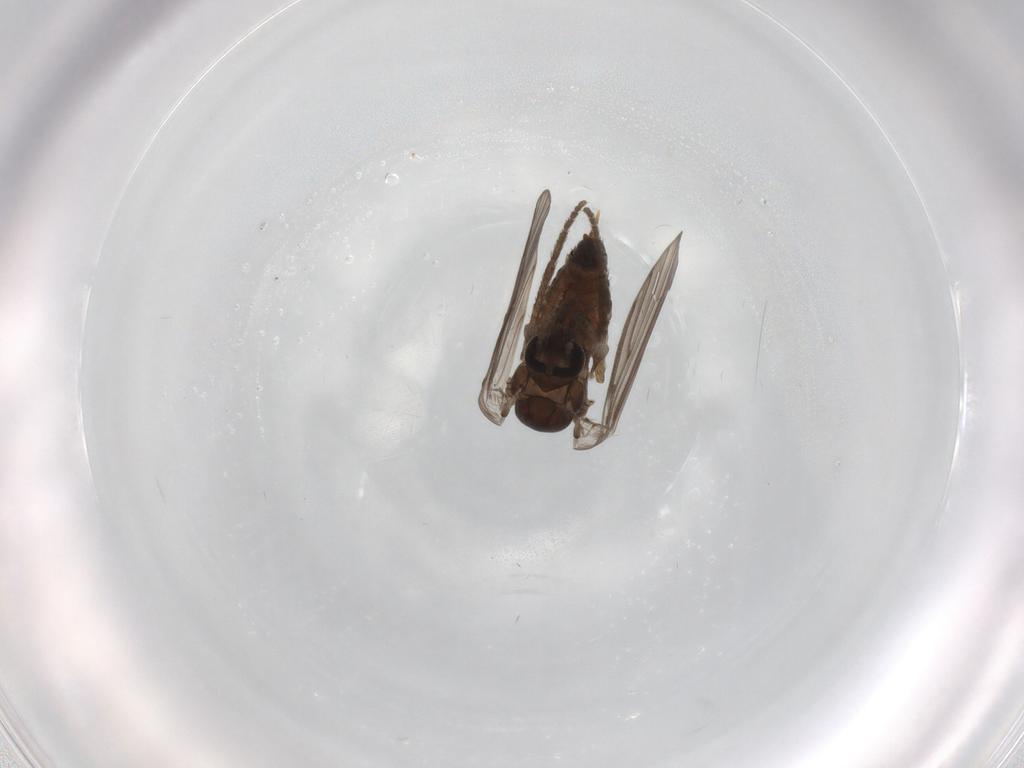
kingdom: Animalia
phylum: Arthropoda
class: Insecta
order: Diptera
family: Psychodidae
